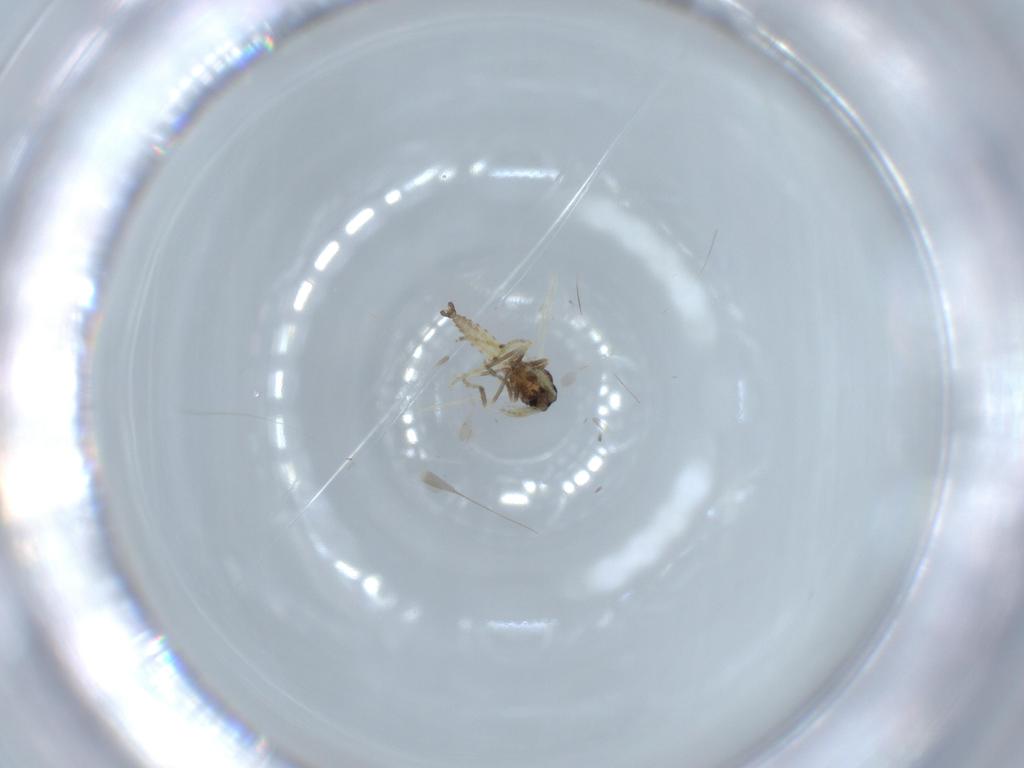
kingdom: Animalia
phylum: Arthropoda
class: Insecta
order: Diptera
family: Ceratopogonidae
